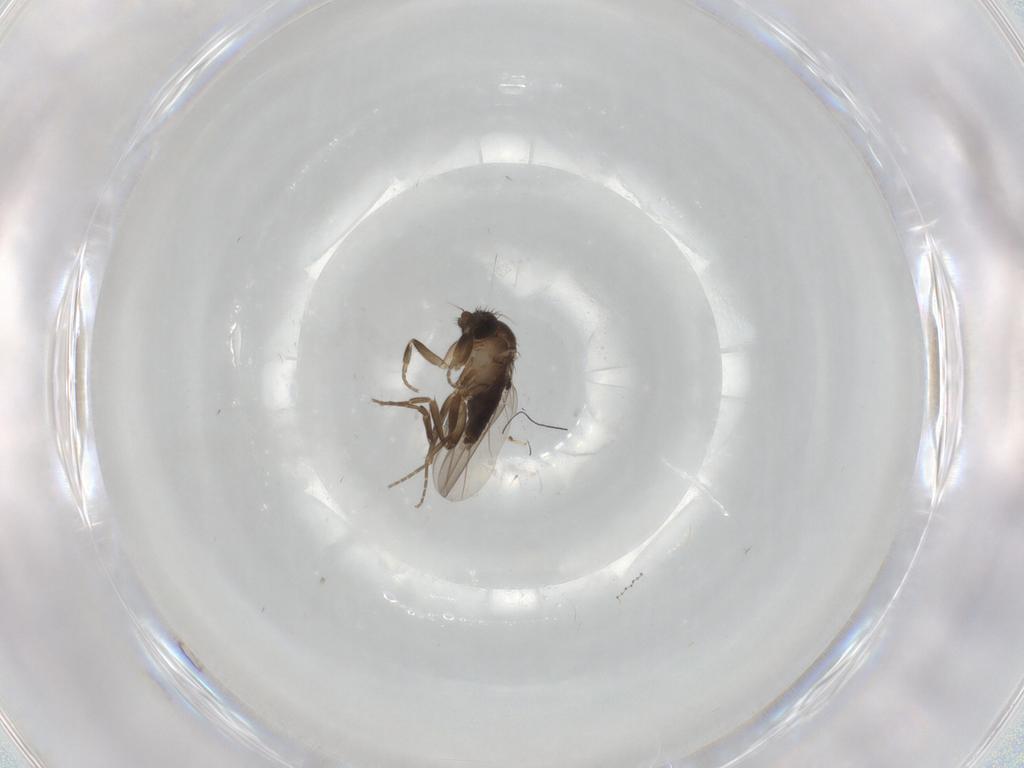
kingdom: Animalia
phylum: Arthropoda
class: Insecta
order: Diptera
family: Cecidomyiidae
